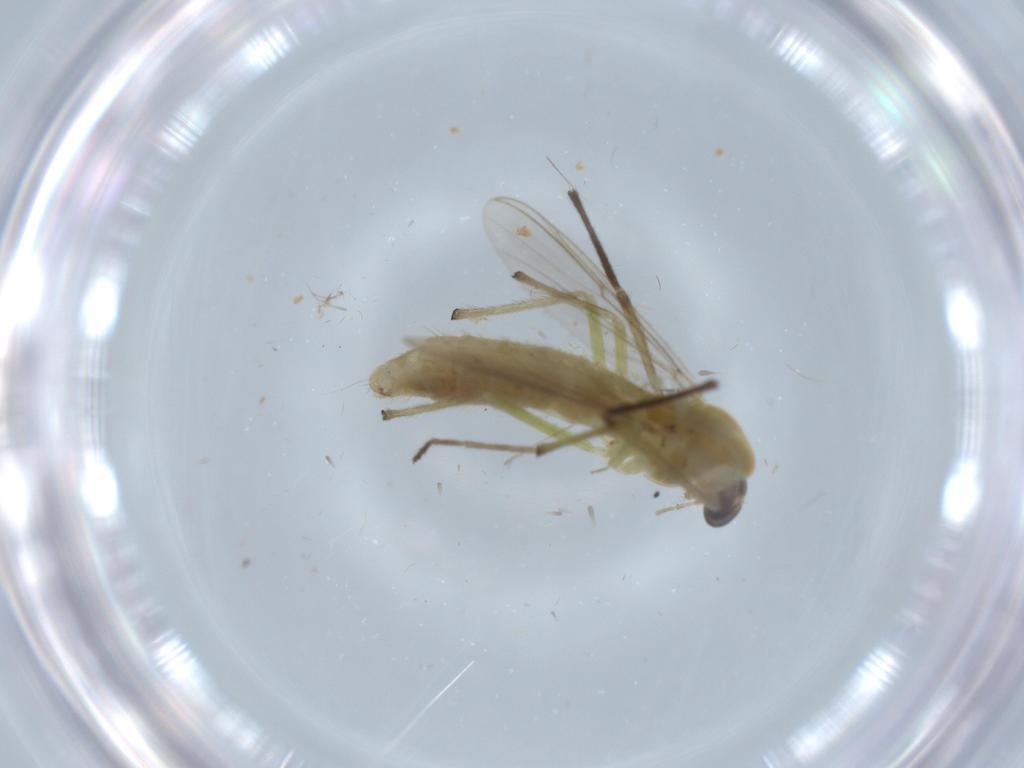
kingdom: Animalia
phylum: Arthropoda
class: Insecta
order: Diptera
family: Chironomidae
